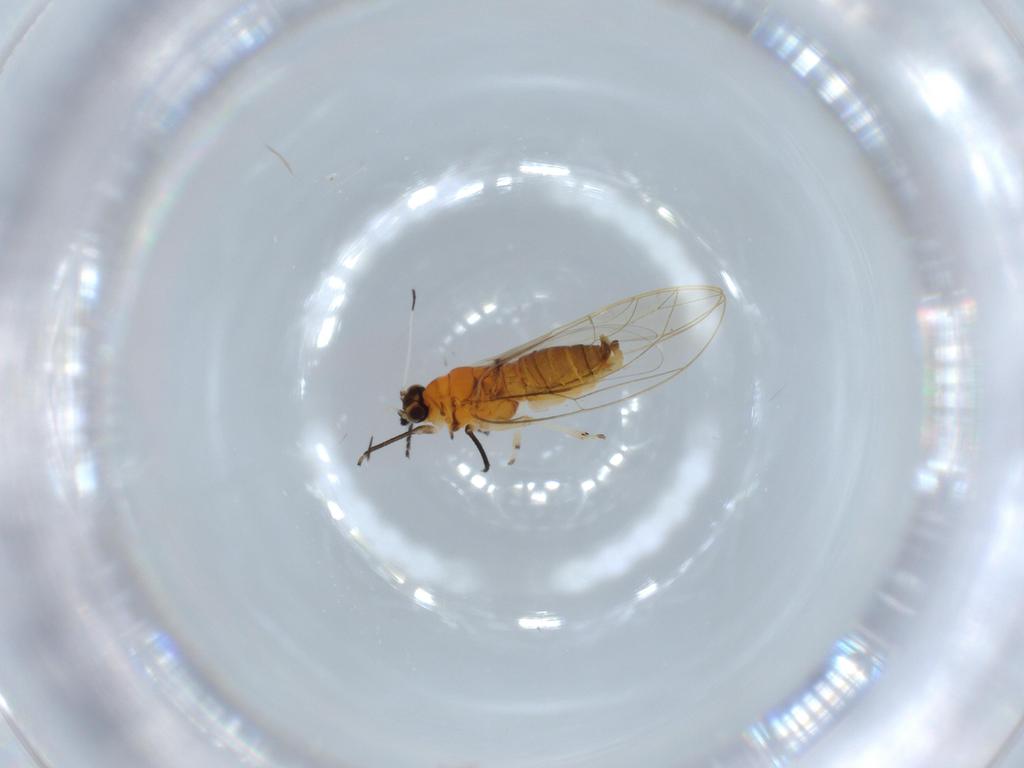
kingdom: Animalia
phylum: Arthropoda
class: Insecta
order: Hemiptera
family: Triozidae
